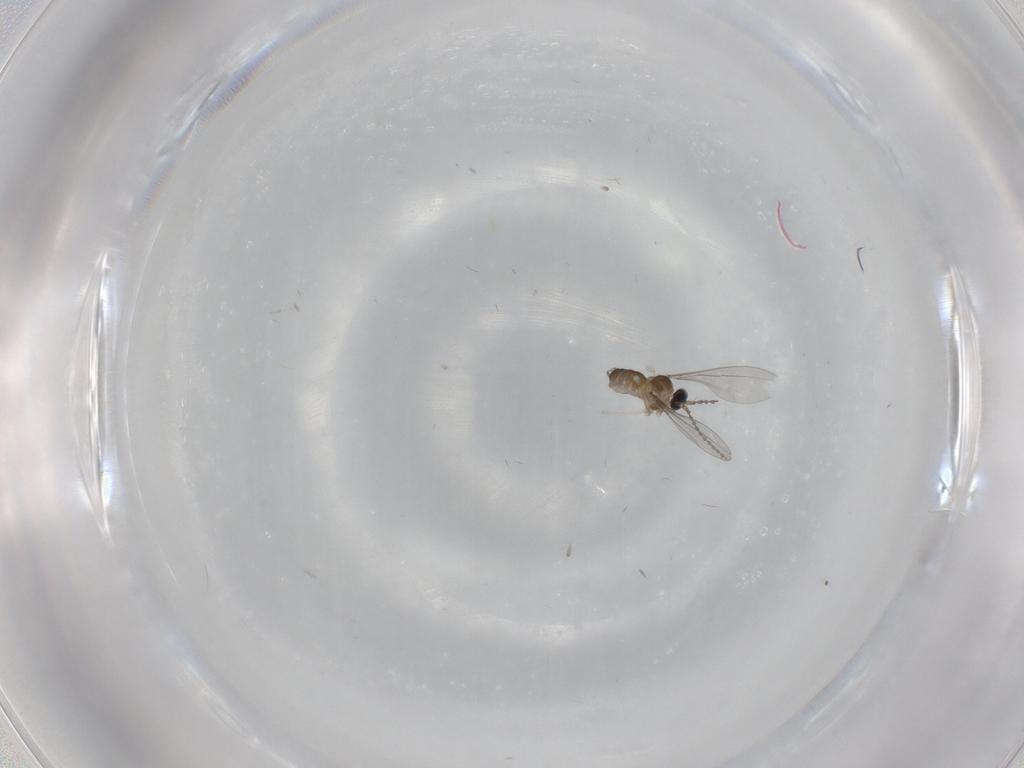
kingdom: Animalia
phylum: Arthropoda
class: Insecta
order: Diptera
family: Cecidomyiidae
